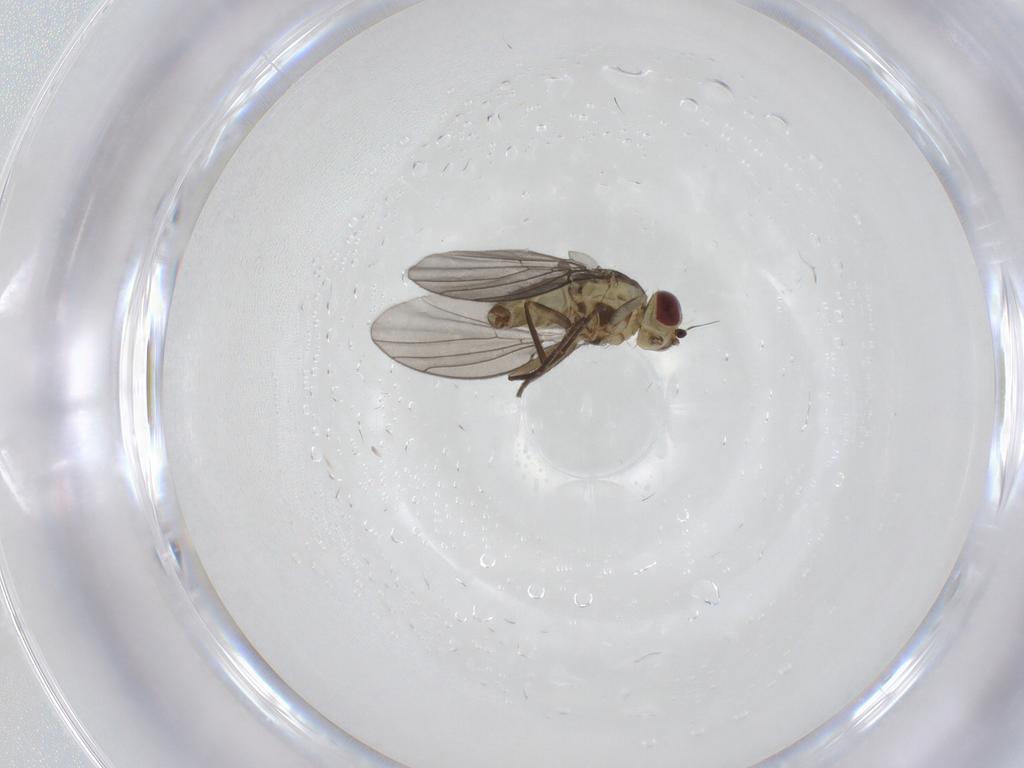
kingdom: Animalia
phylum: Arthropoda
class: Insecta
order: Diptera
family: Agromyzidae
